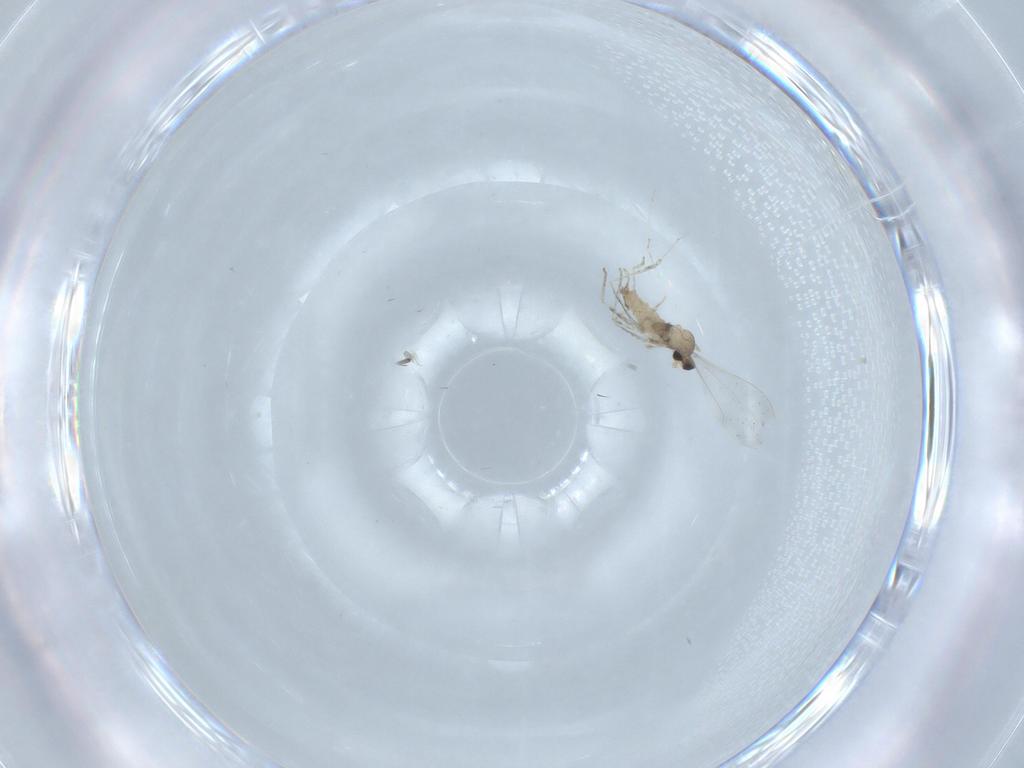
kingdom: Animalia
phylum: Arthropoda
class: Insecta
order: Diptera
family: Cecidomyiidae
